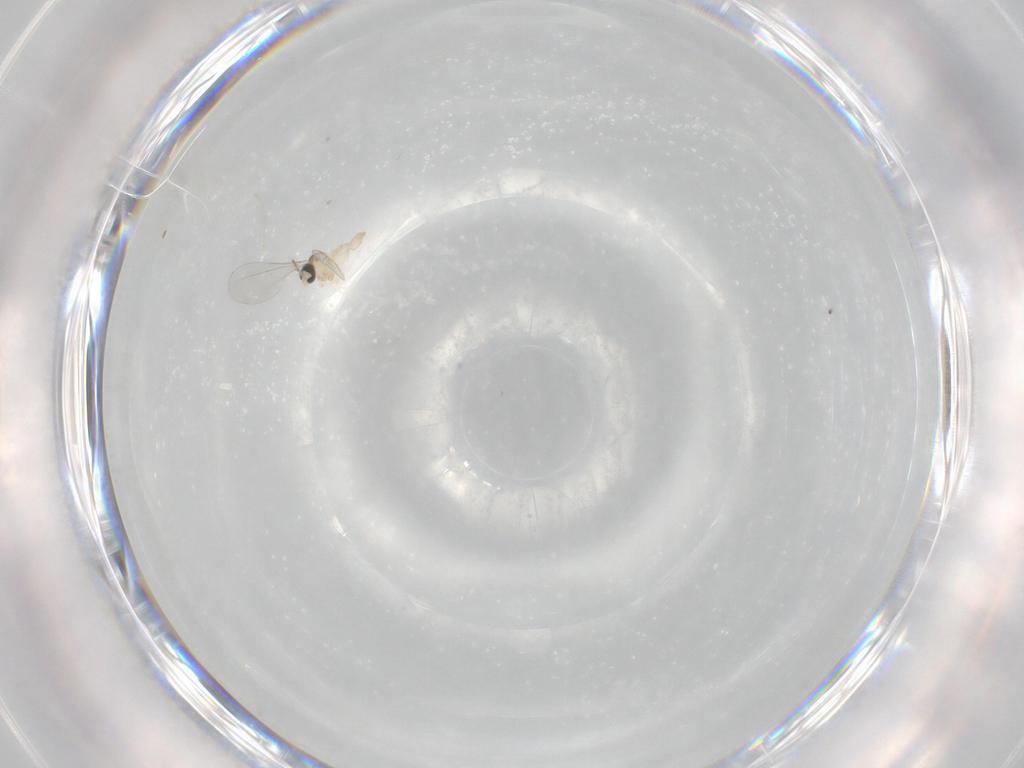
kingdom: Animalia
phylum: Arthropoda
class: Insecta
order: Diptera
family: Cecidomyiidae
